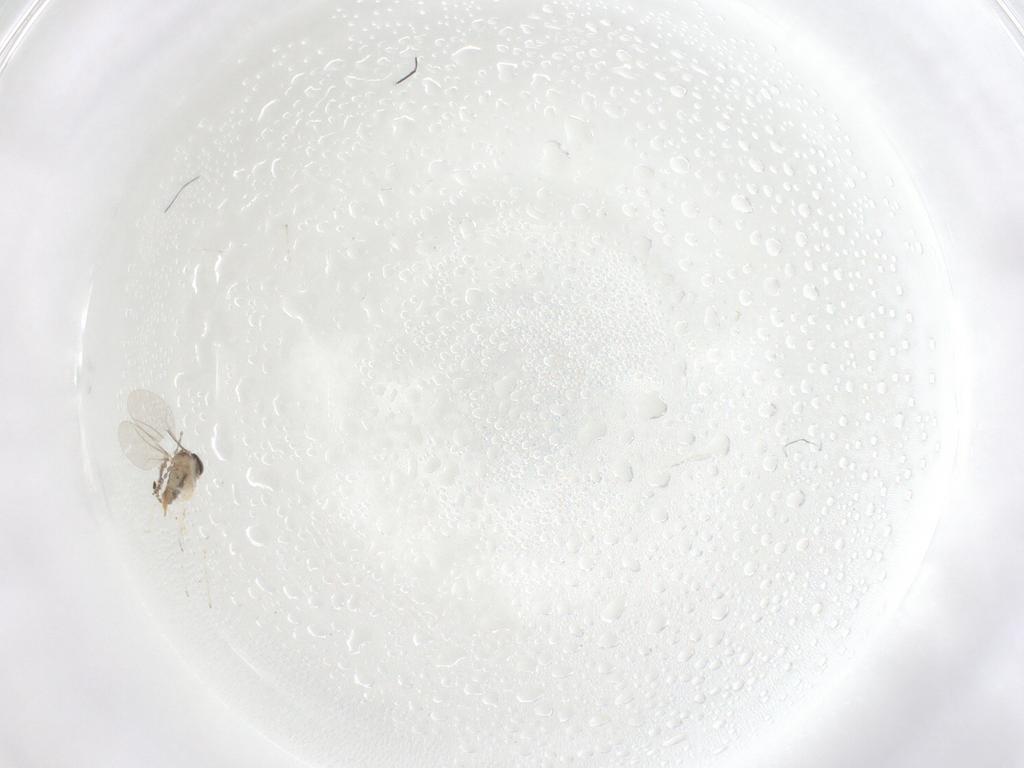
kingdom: Animalia
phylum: Arthropoda
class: Insecta
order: Diptera
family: Cecidomyiidae
